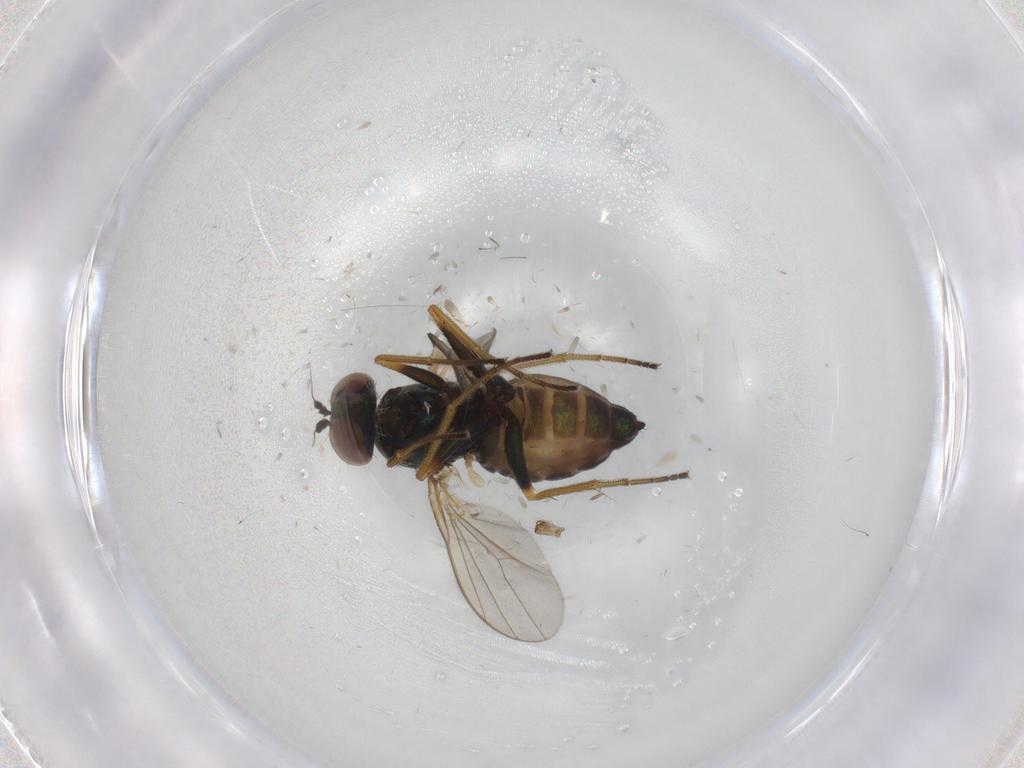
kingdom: Animalia
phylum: Arthropoda
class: Insecta
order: Diptera
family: Dolichopodidae
